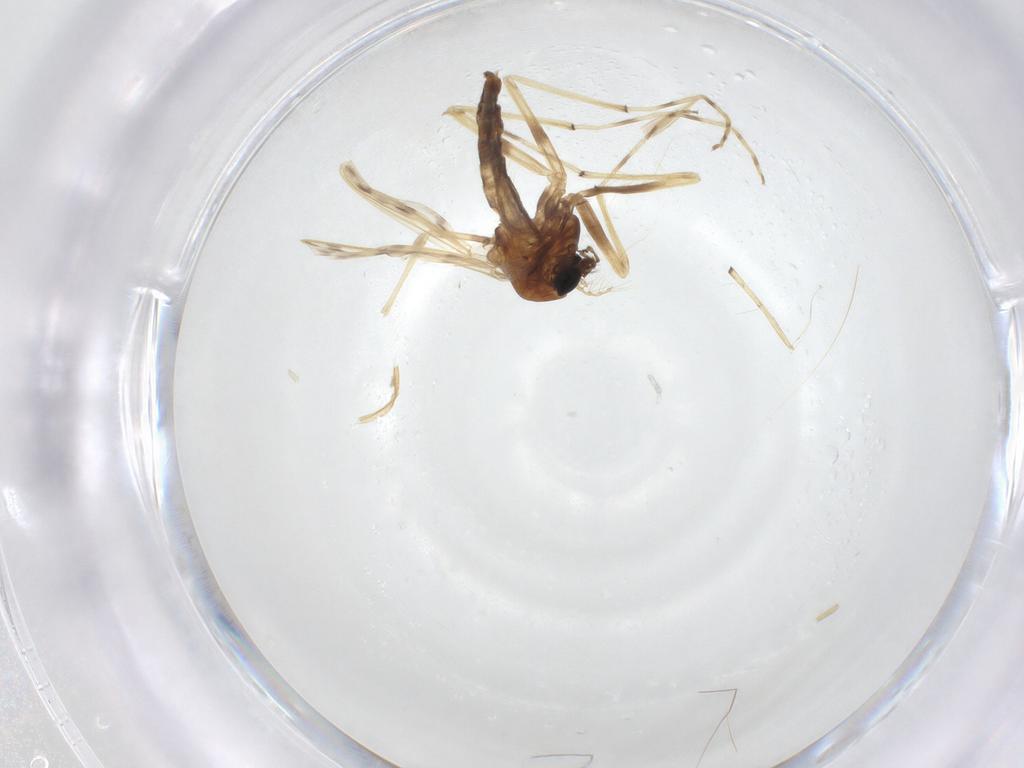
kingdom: Animalia
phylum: Arthropoda
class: Insecta
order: Diptera
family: Chironomidae
